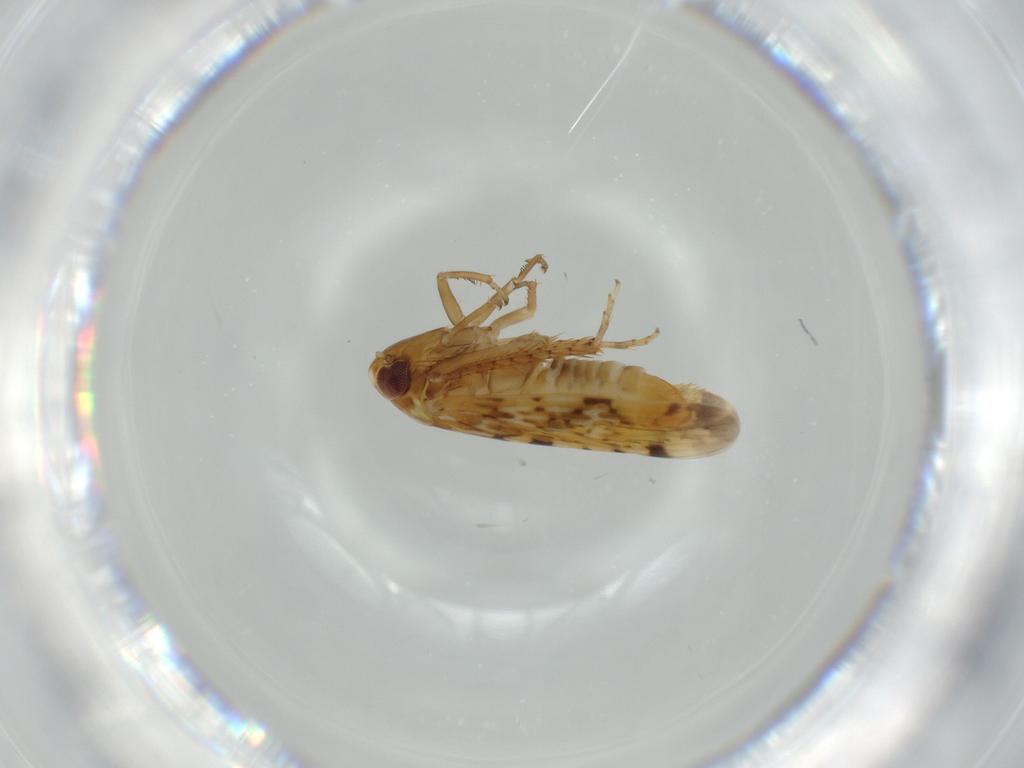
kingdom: Animalia
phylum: Arthropoda
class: Insecta
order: Hemiptera
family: Cicadellidae
